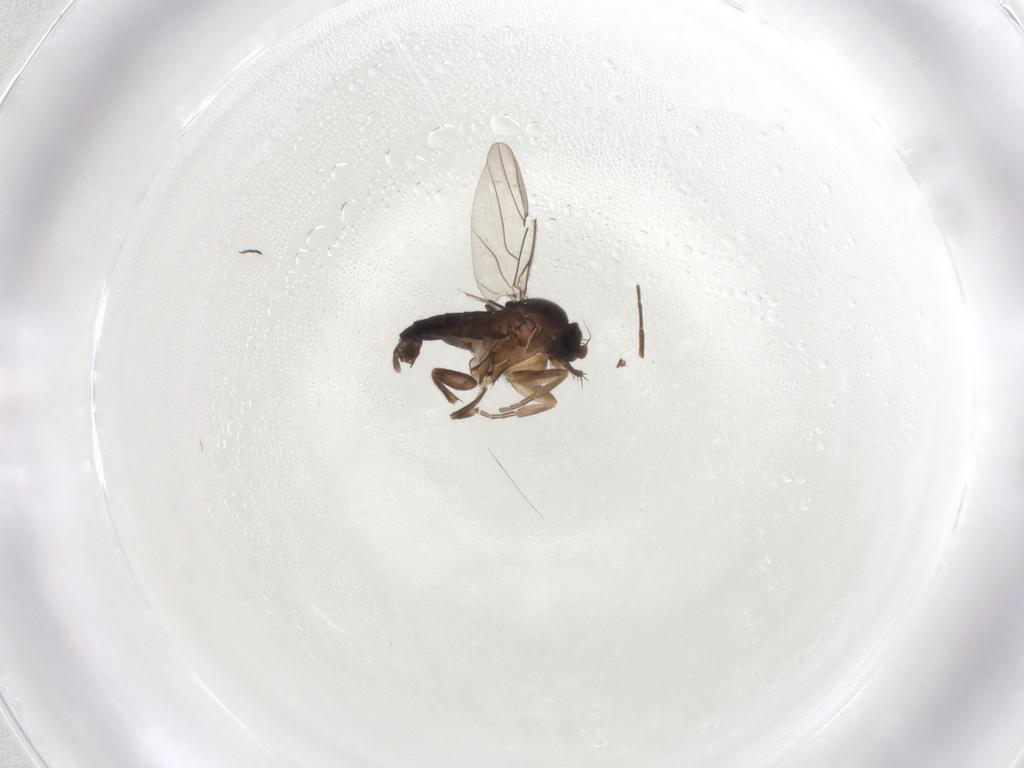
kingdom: Animalia
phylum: Arthropoda
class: Insecta
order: Diptera
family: Phoridae
